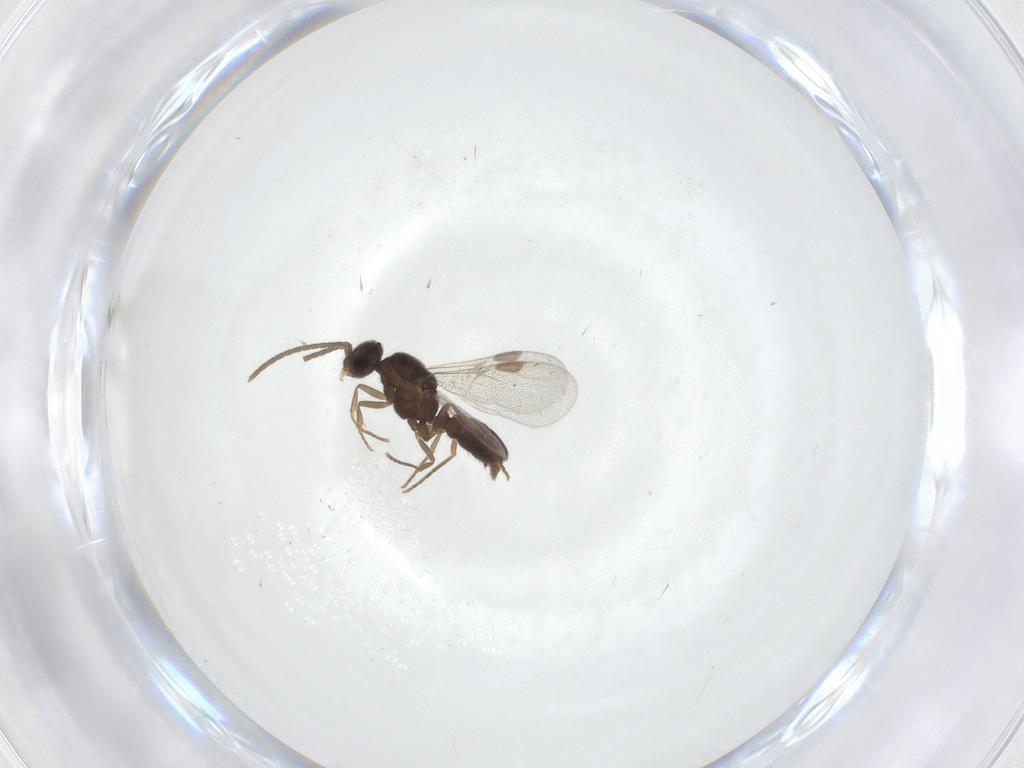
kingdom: Animalia
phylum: Arthropoda
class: Insecta
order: Hymenoptera
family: Formicidae
